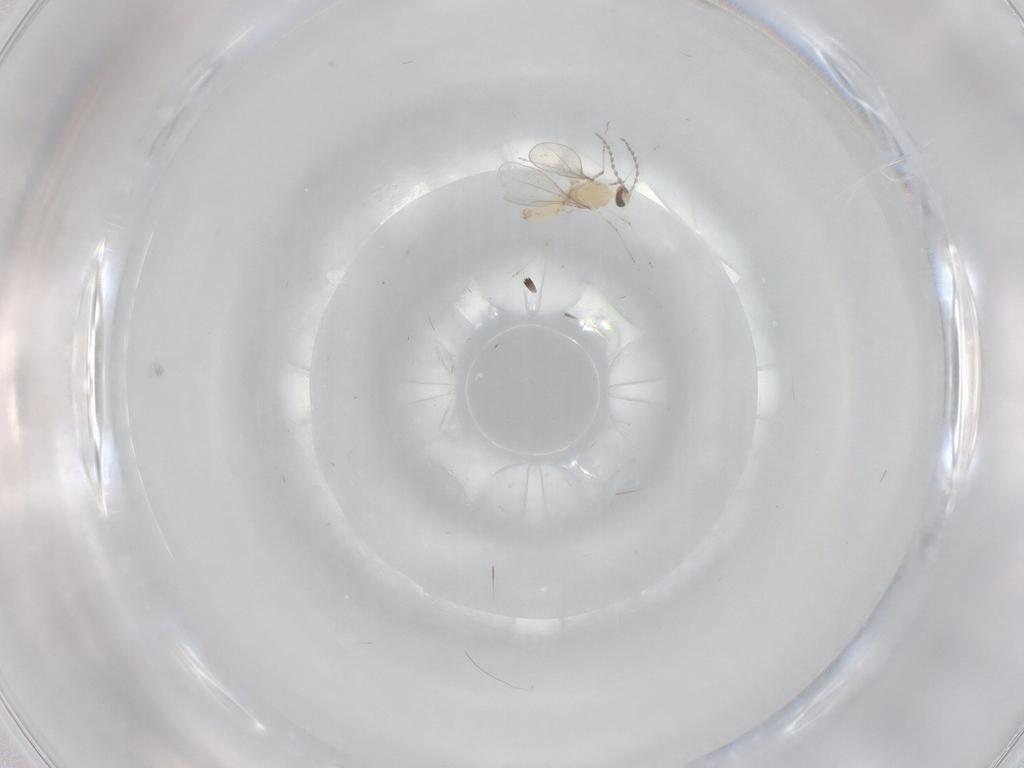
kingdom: Animalia
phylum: Arthropoda
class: Insecta
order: Diptera
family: Cecidomyiidae
